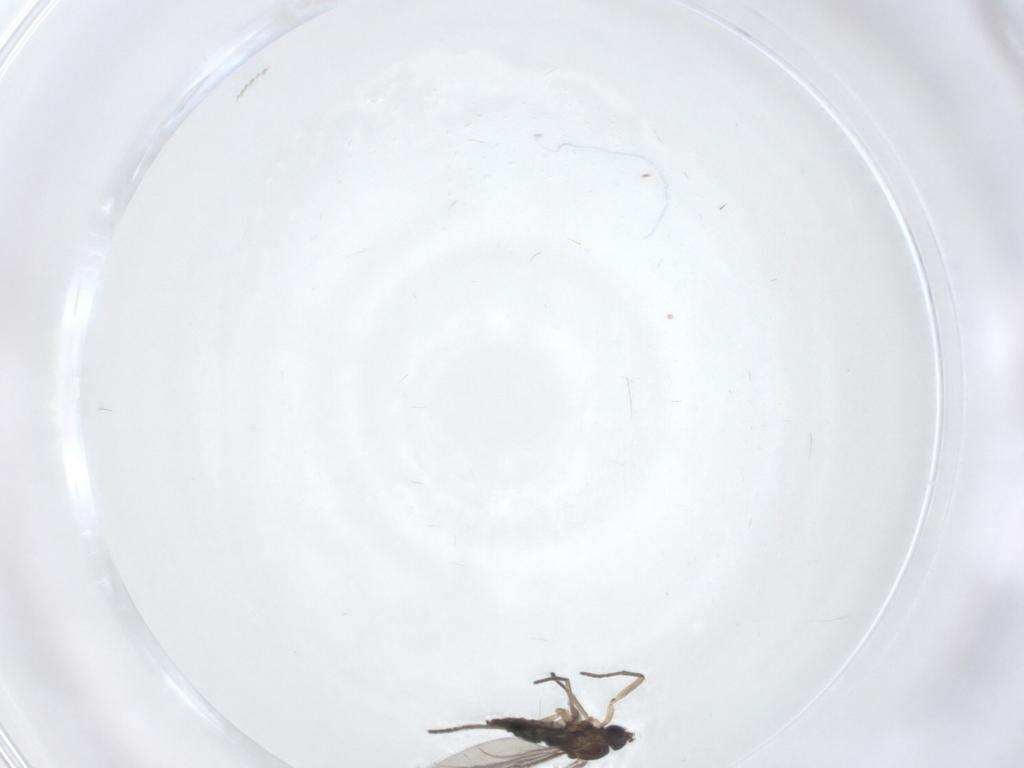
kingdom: Animalia
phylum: Arthropoda
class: Insecta
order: Diptera
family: Sciaridae
